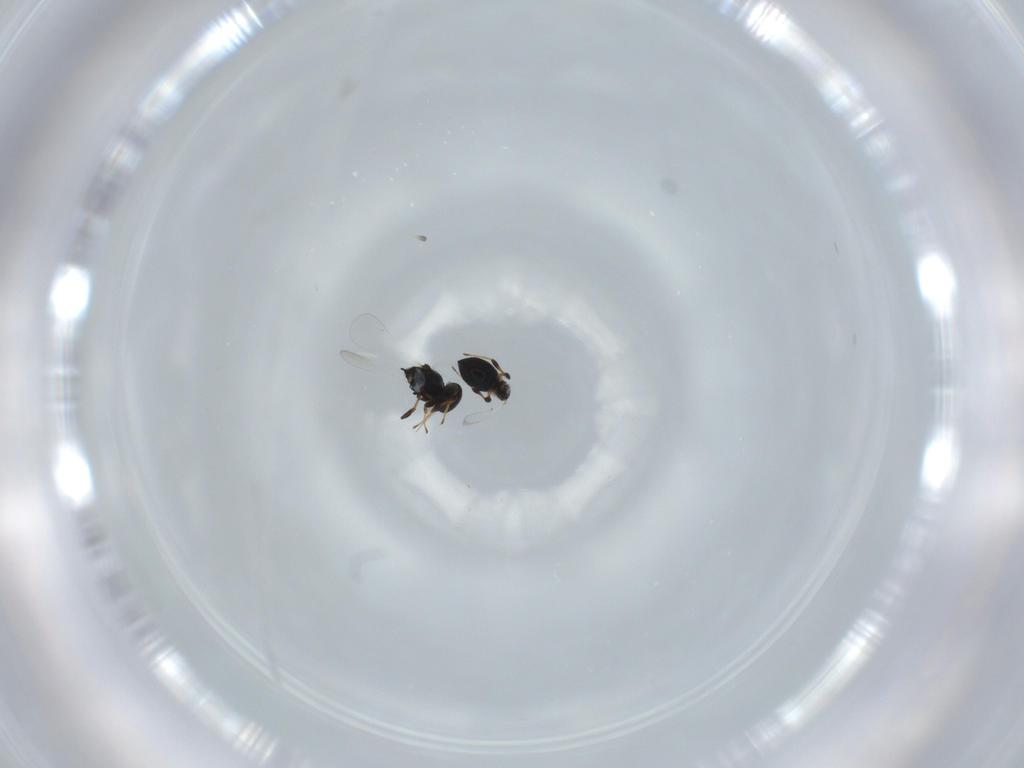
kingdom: Animalia
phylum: Arthropoda
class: Insecta
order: Hymenoptera
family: Platygastridae
